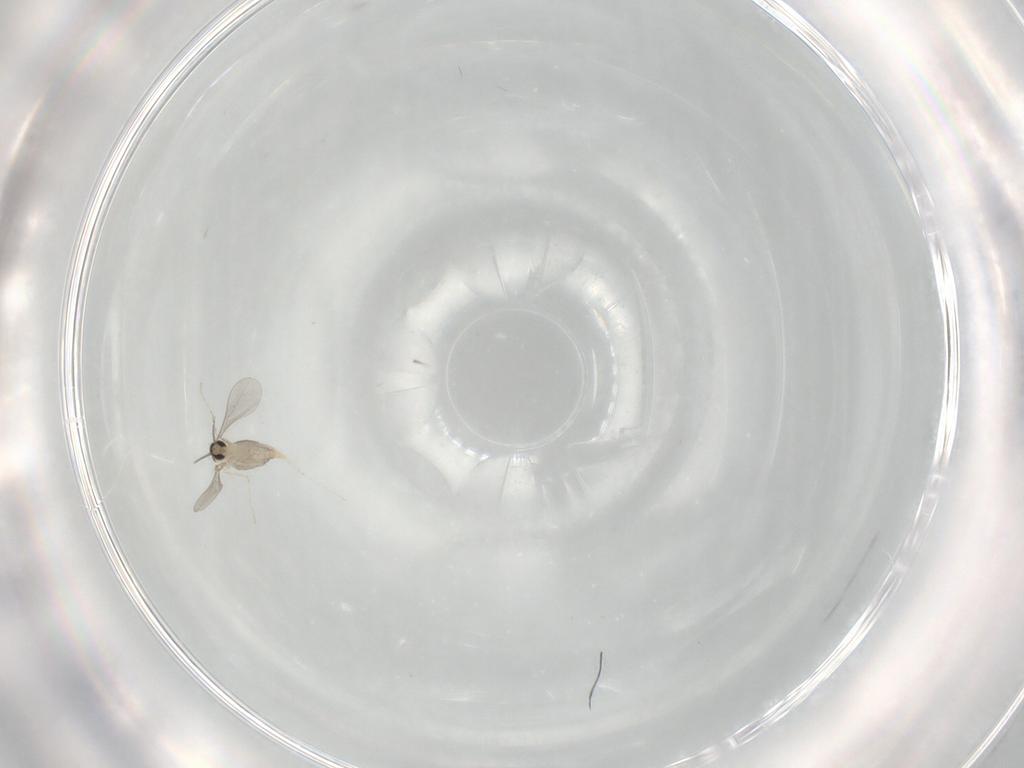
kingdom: Animalia
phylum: Arthropoda
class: Insecta
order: Diptera
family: Cecidomyiidae
